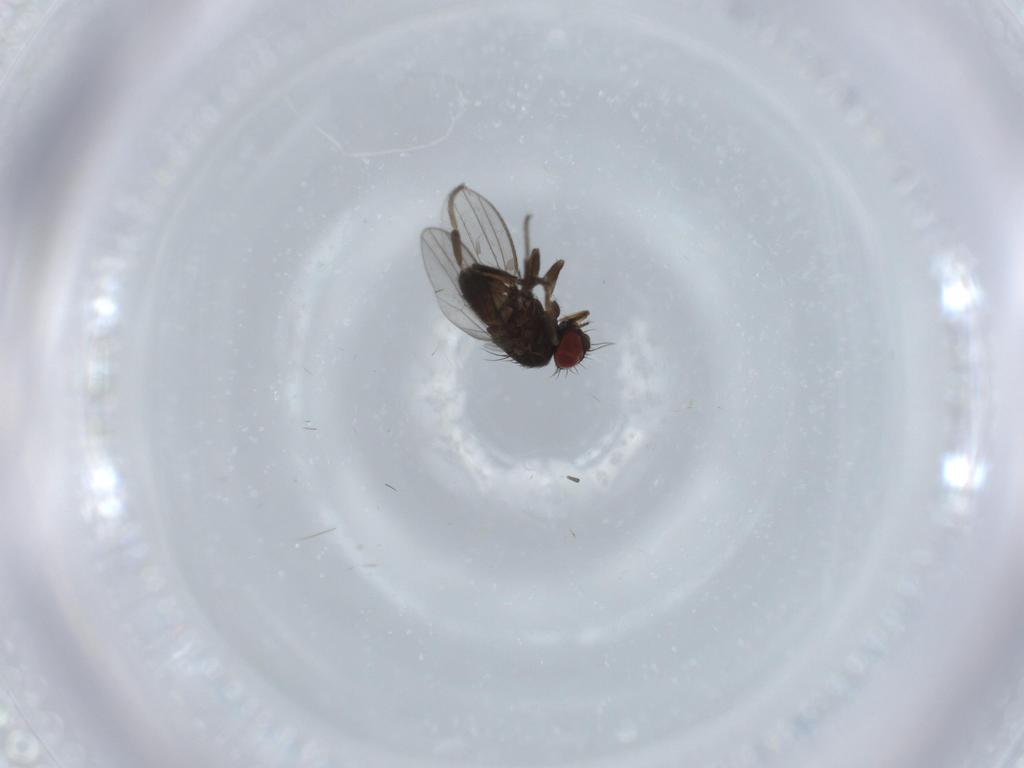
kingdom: Animalia
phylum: Arthropoda
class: Insecta
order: Diptera
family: Milichiidae
